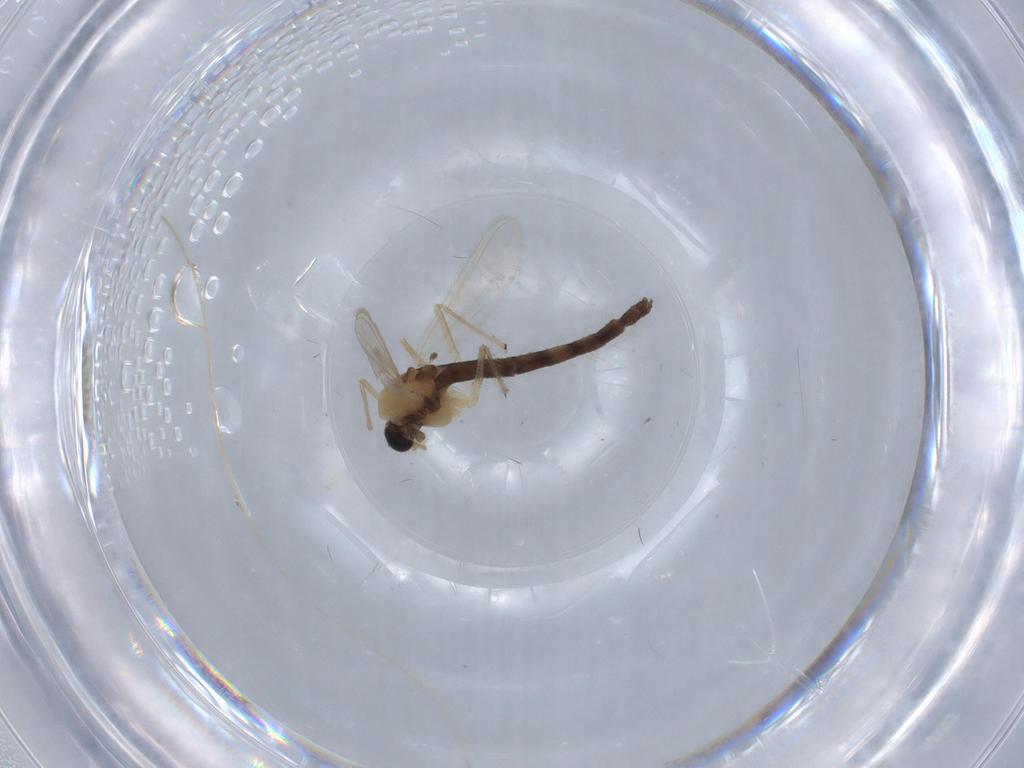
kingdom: Animalia
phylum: Arthropoda
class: Insecta
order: Diptera
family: Chironomidae
